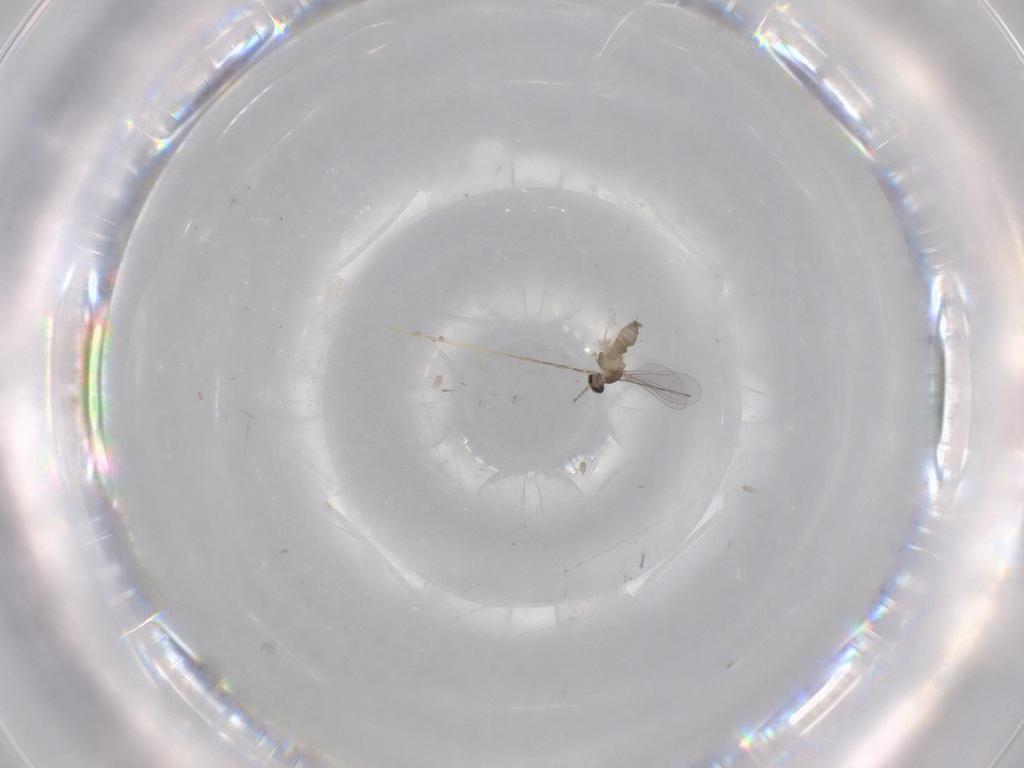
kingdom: Animalia
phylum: Arthropoda
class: Insecta
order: Diptera
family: Cecidomyiidae
